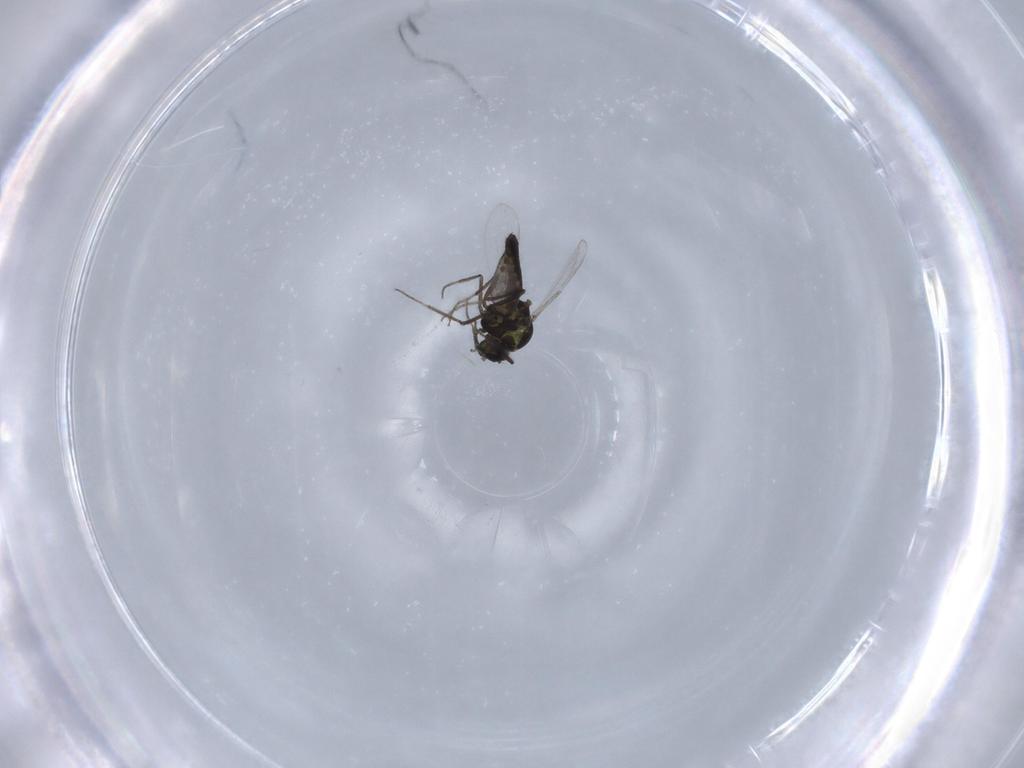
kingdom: Animalia
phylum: Arthropoda
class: Insecta
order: Diptera
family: Ceratopogonidae
